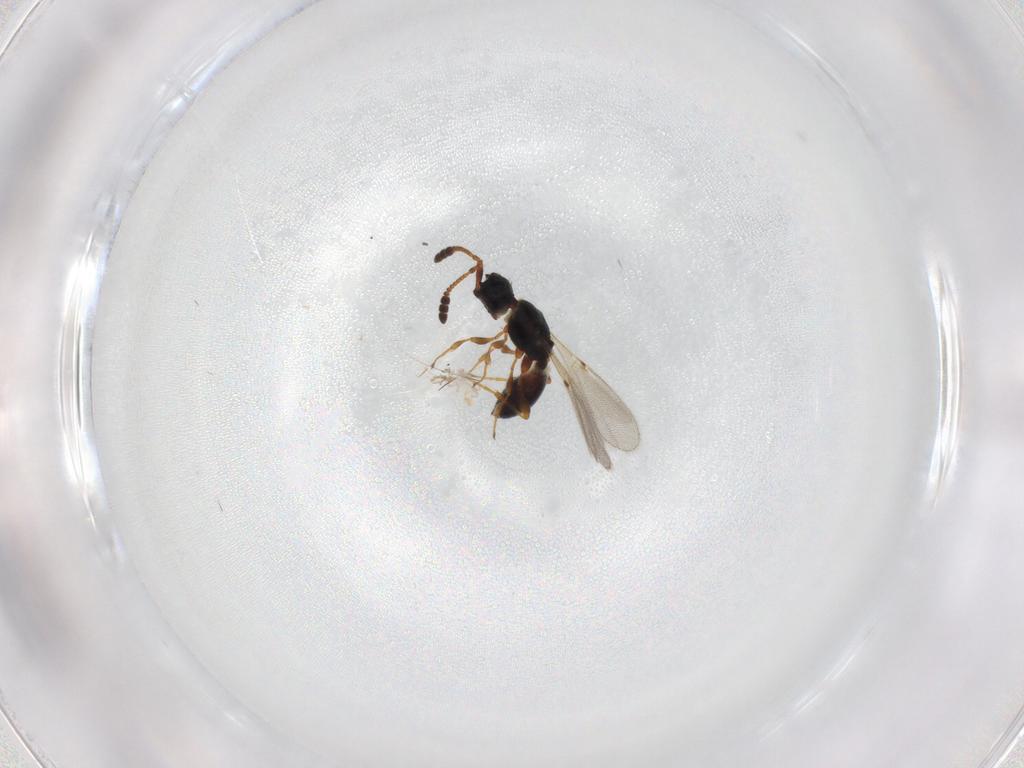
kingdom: Animalia
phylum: Arthropoda
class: Insecta
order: Hymenoptera
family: Diapriidae
